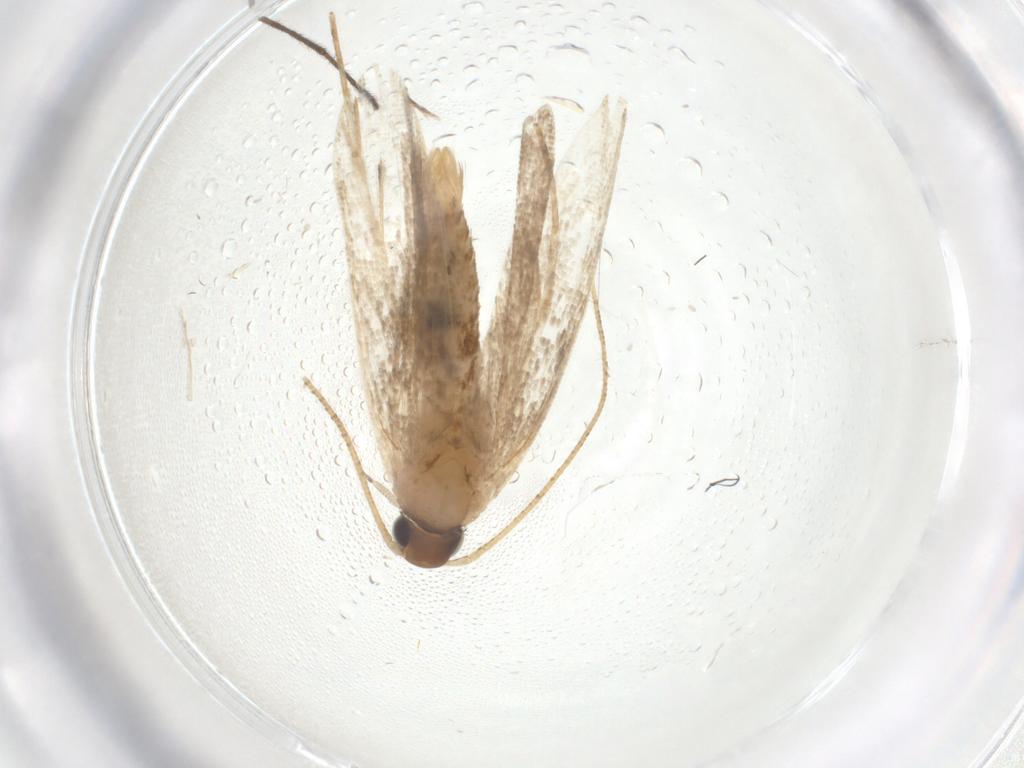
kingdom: Animalia
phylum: Arthropoda
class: Insecta
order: Lepidoptera
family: Gelechiidae
